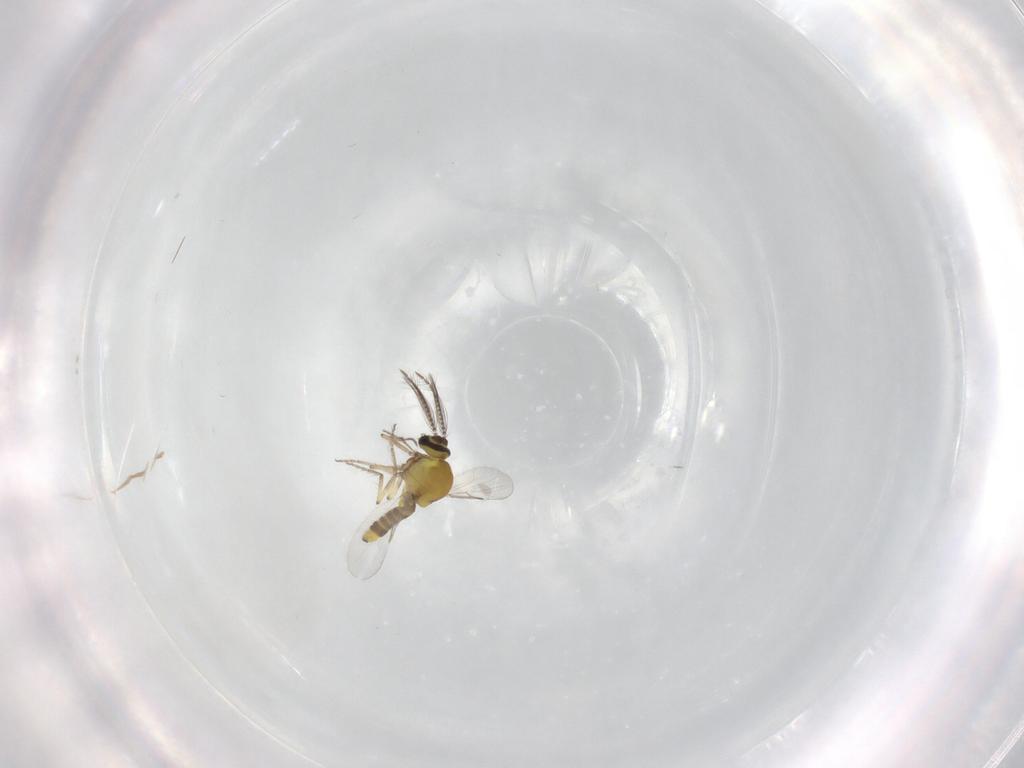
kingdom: Animalia
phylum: Arthropoda
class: Insecta
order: Diptera
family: Ceratopogonidae
